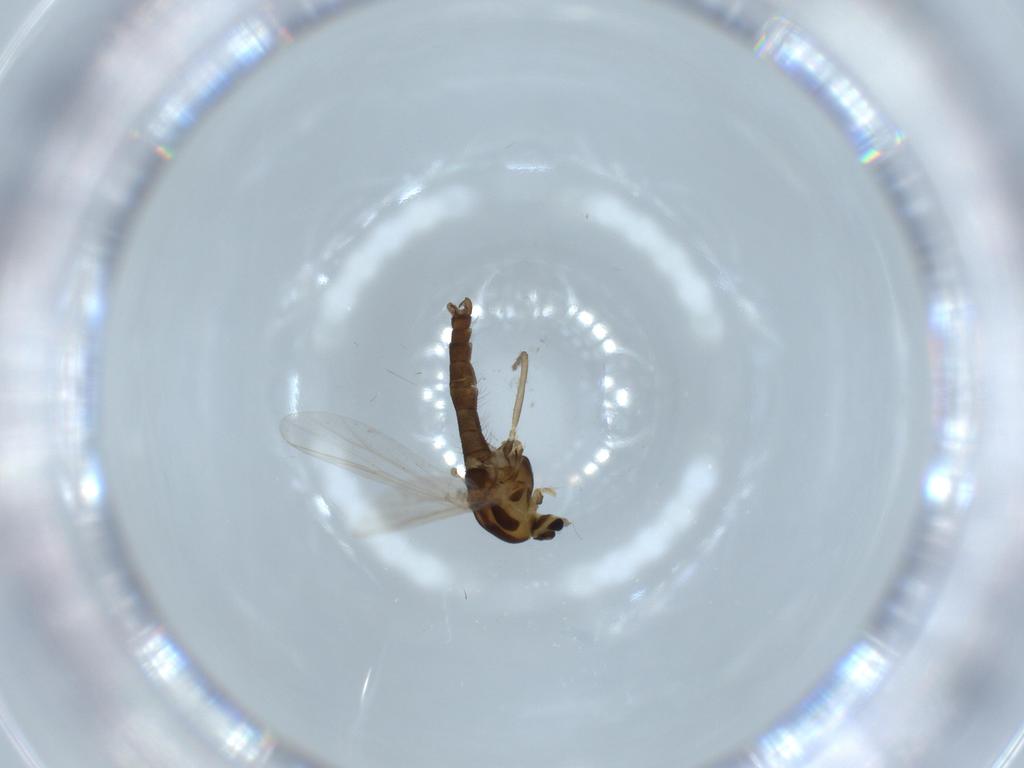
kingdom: Animalia
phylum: Arthropoda
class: Insecta
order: Diptera
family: Chironomidae
